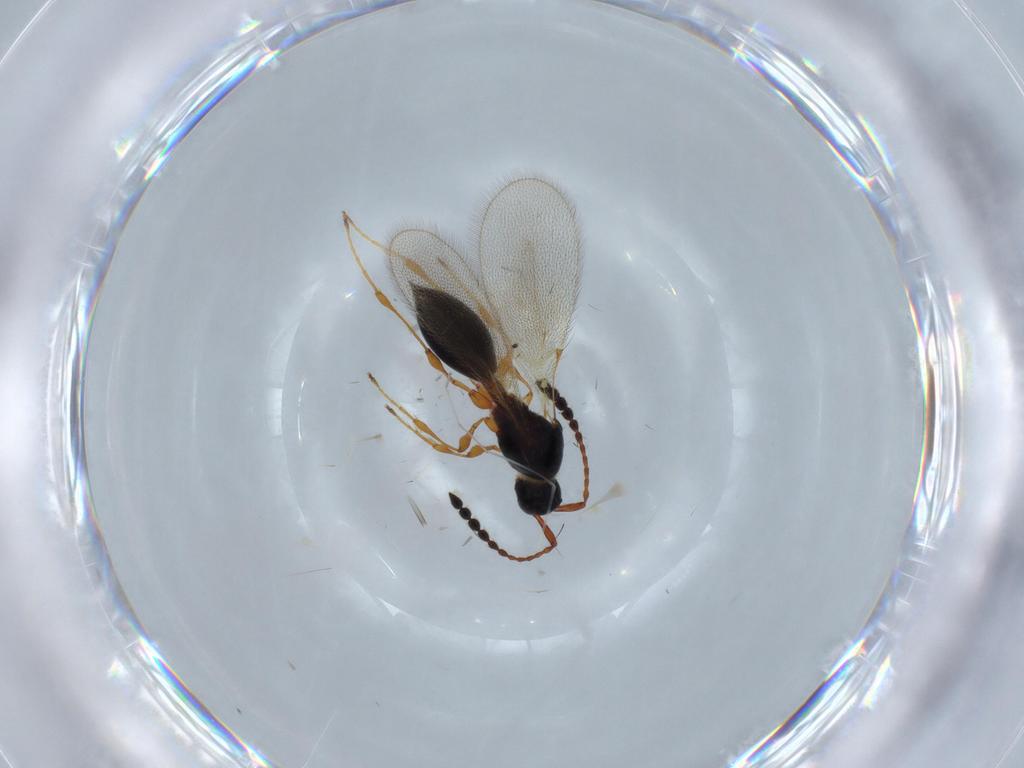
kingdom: Animalia
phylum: Arthropoda
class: Insecta
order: Hymenoptera
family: Diapriidae
